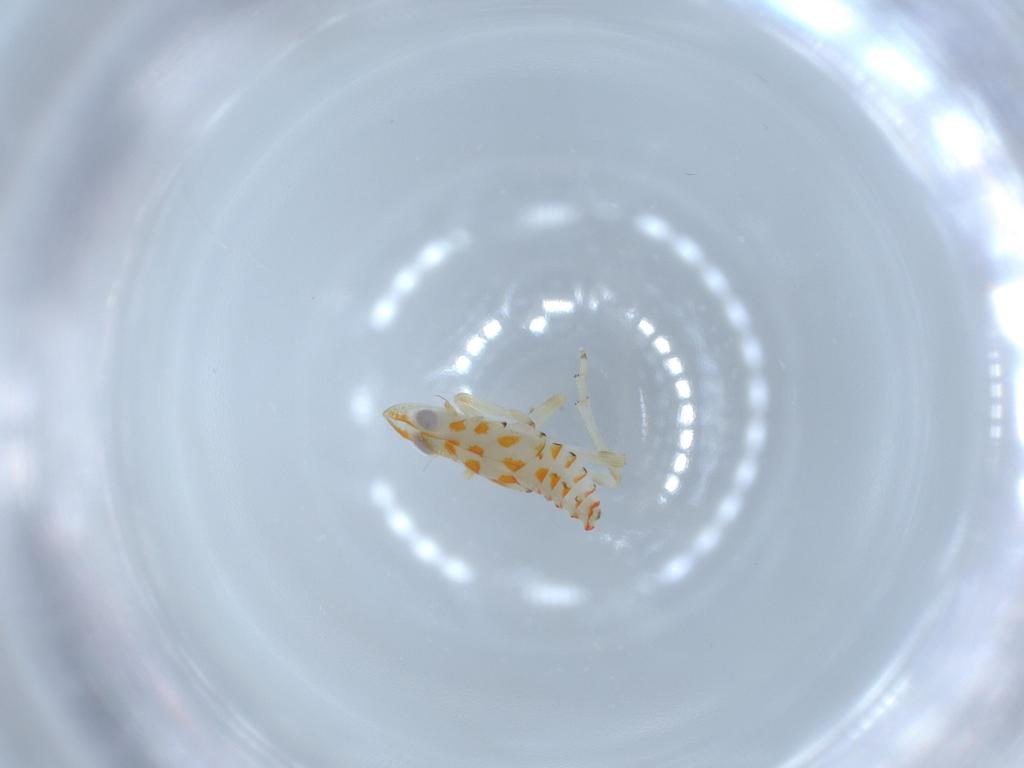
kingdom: Animalia
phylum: Arthropoda
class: Insecta
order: Hemiptera
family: Tropiduchidae
